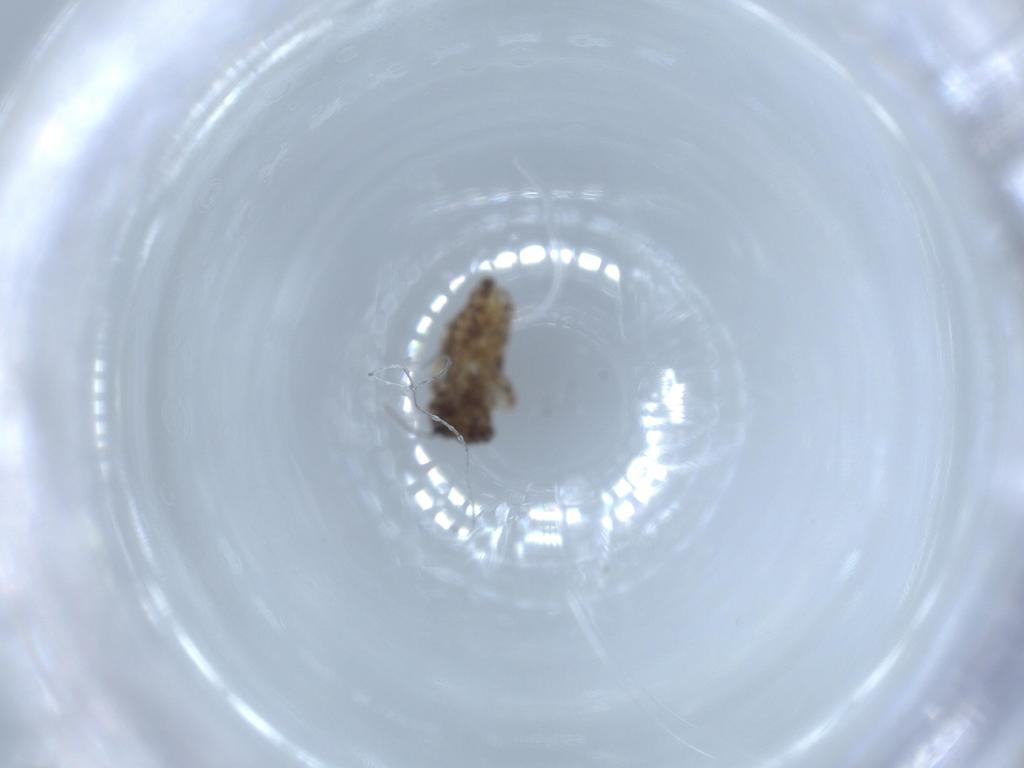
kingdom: Animalia
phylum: Arthropoda
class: Insecta
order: Psocodea
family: Lepidopsocidae
